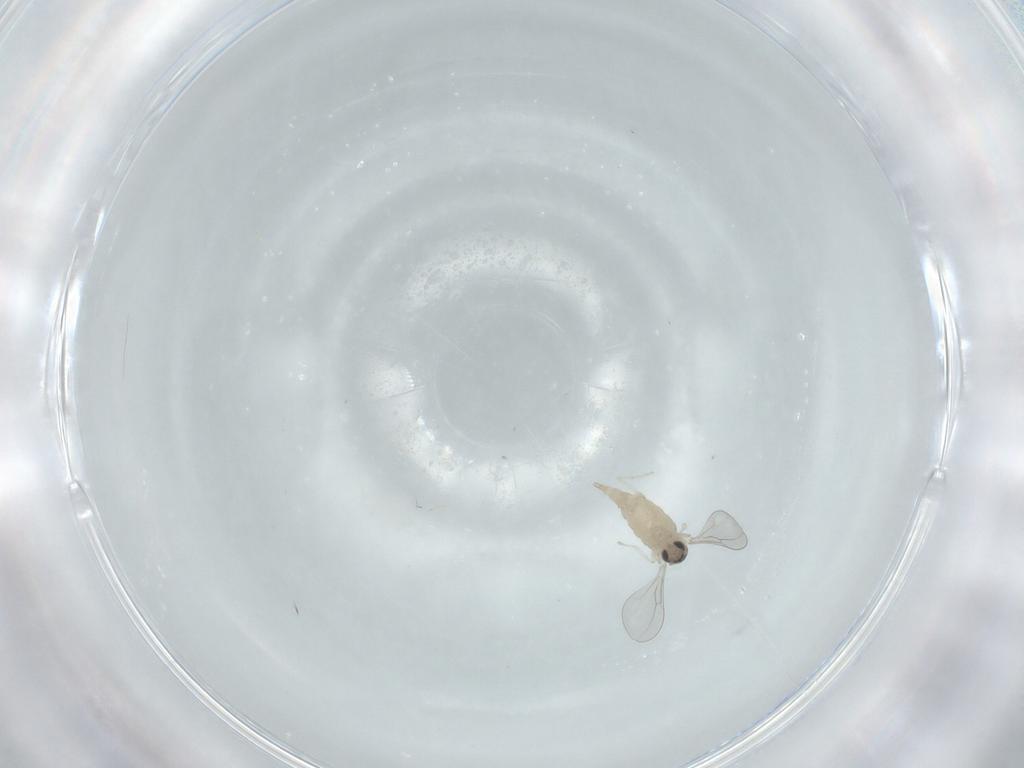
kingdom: Animalia
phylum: Arthropoda
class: Insecta
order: Diptera
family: Cecidomyiidae
